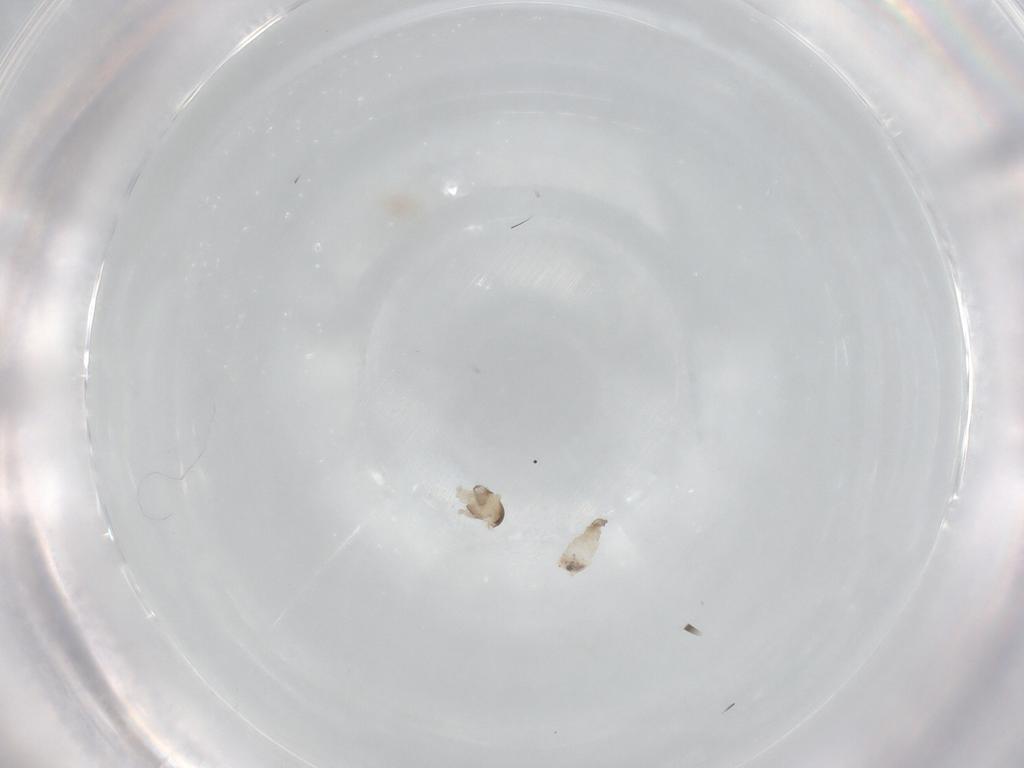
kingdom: Animalia
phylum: Arthropoda
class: Insecta
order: Diptera
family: Cecidomyiidae
